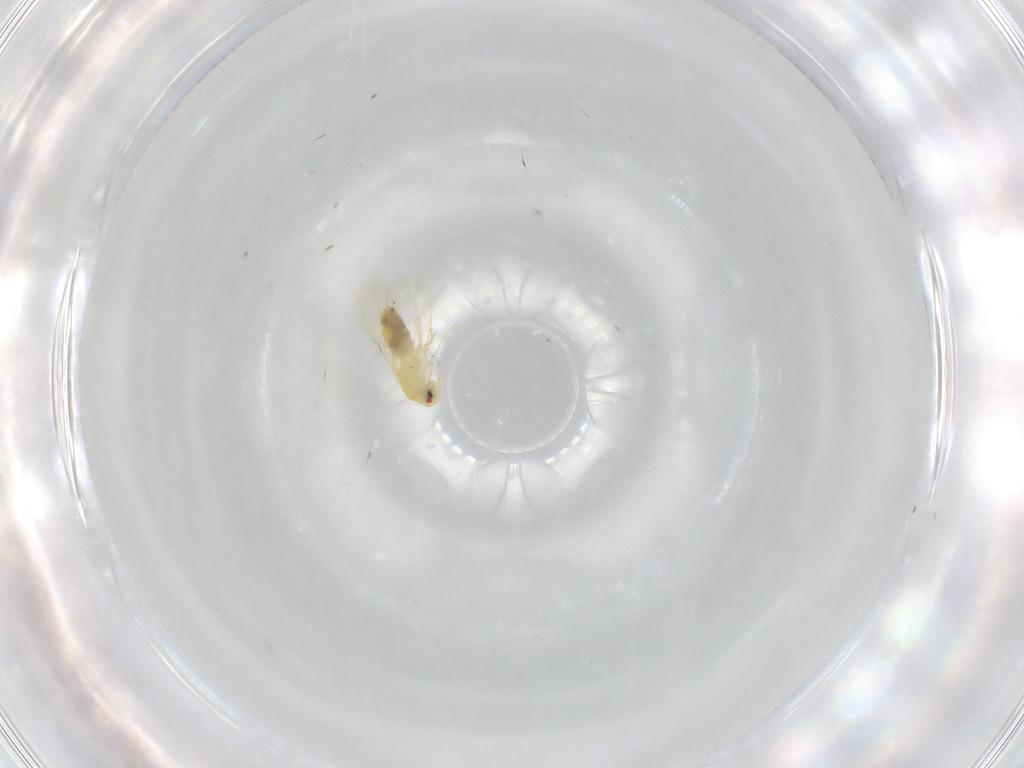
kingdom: Animalia
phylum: Arthropoda
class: Insecta
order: Hemiptera
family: Aleyrodidae
